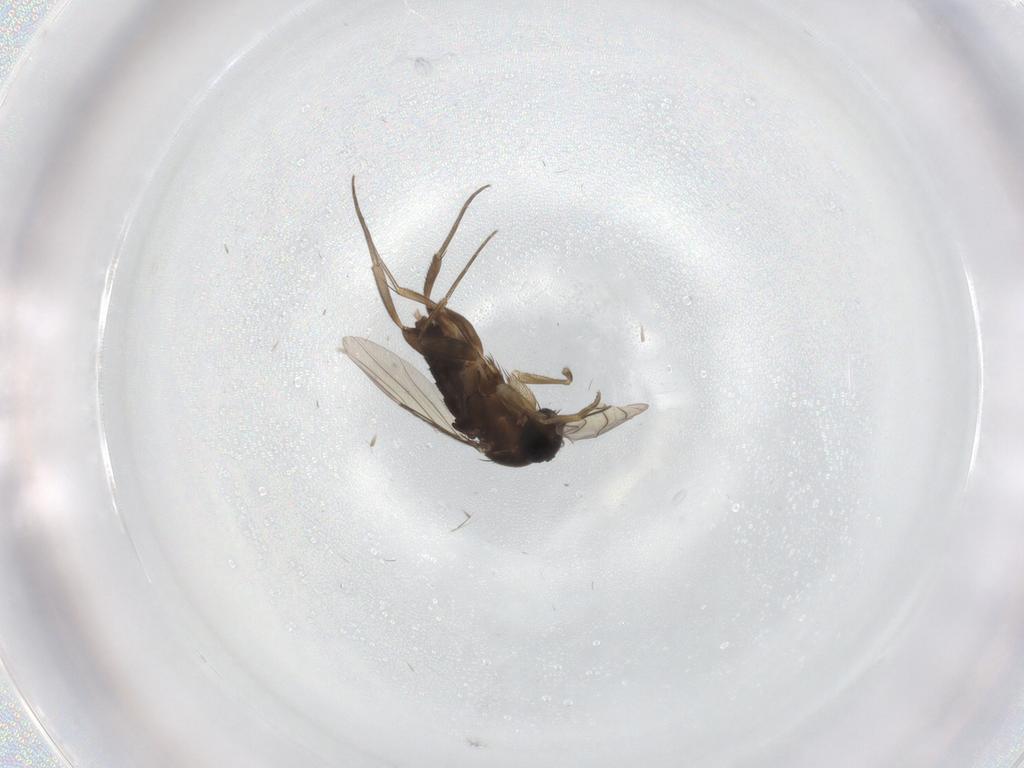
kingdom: Animalia
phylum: Arthropoda
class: Insecta
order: Diptera
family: Phoridae
